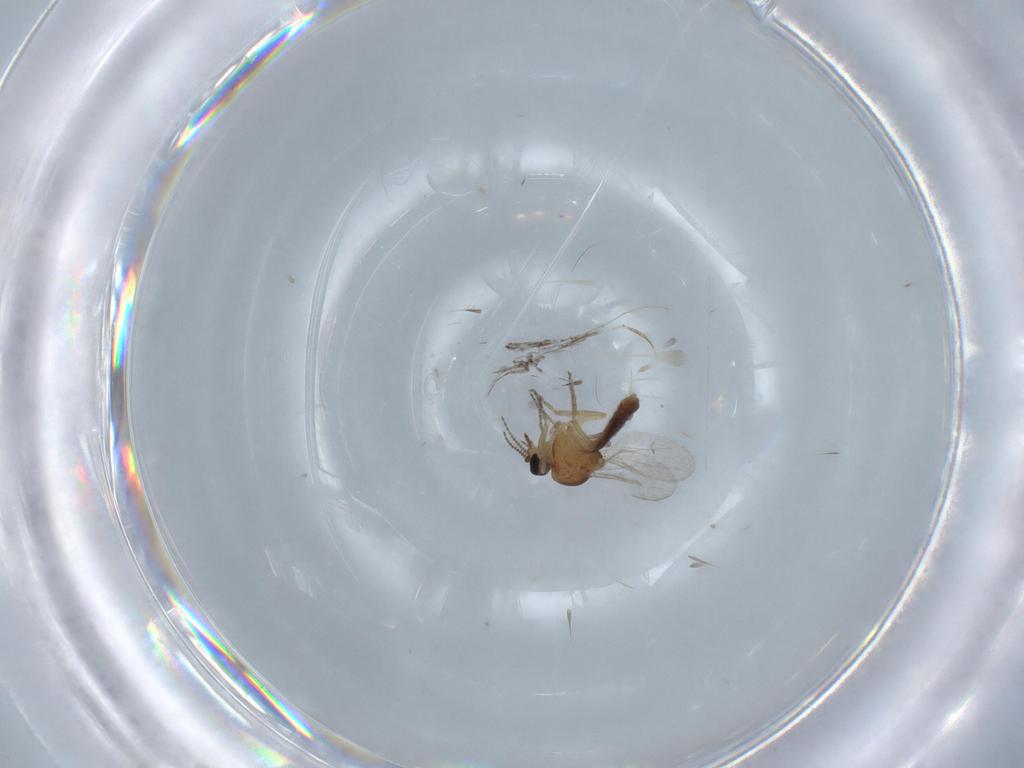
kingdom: Animalia
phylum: Arthropoda
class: Insecta
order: Diptera
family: Ceratopogonidae
